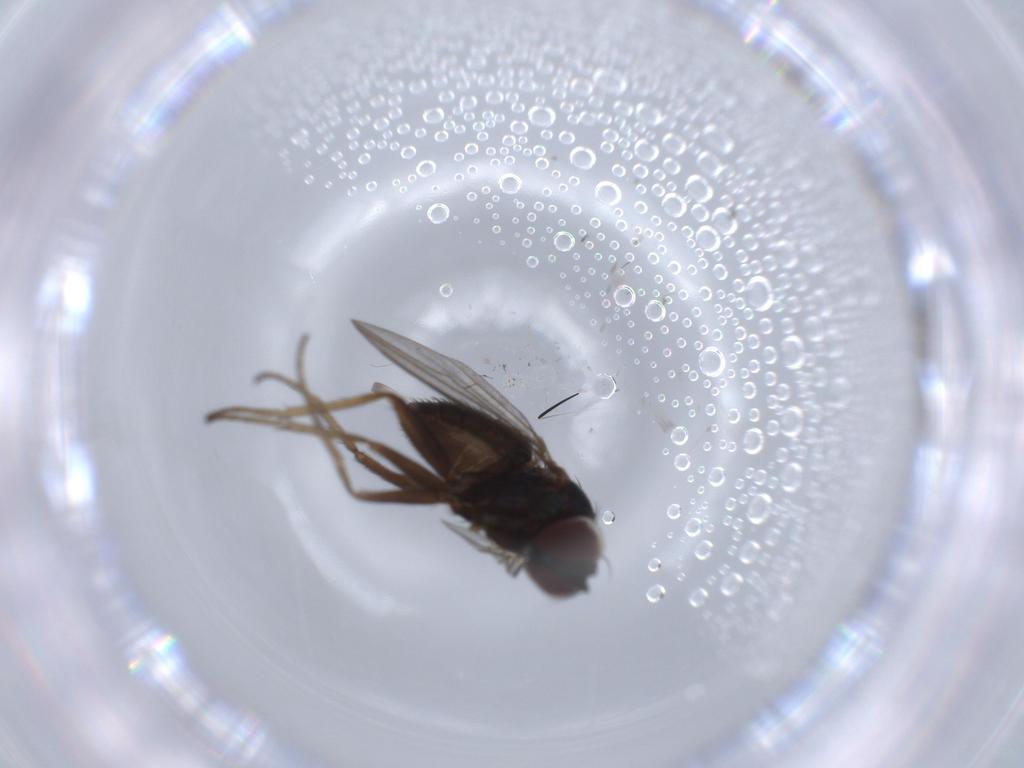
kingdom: Animalia
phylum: Arthropoda
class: Insecta
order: Diptera
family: Dolichopodidae
